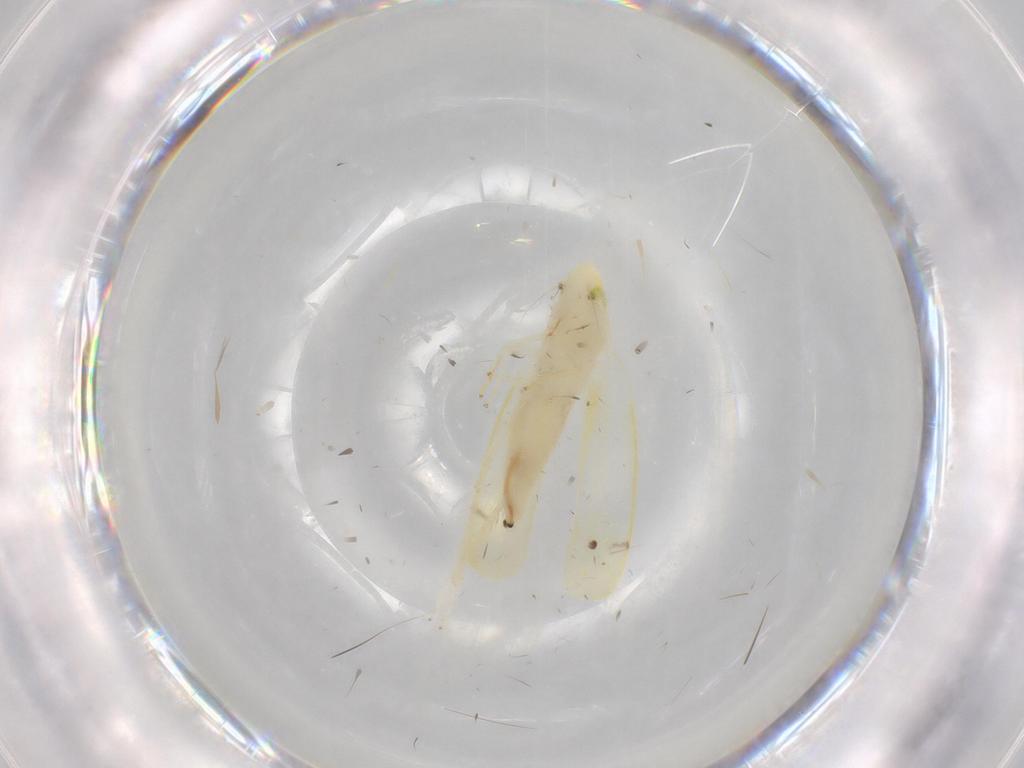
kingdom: Animalia
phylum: Arthropoda
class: Insecta
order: Hemiptera
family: Cicadellidae
